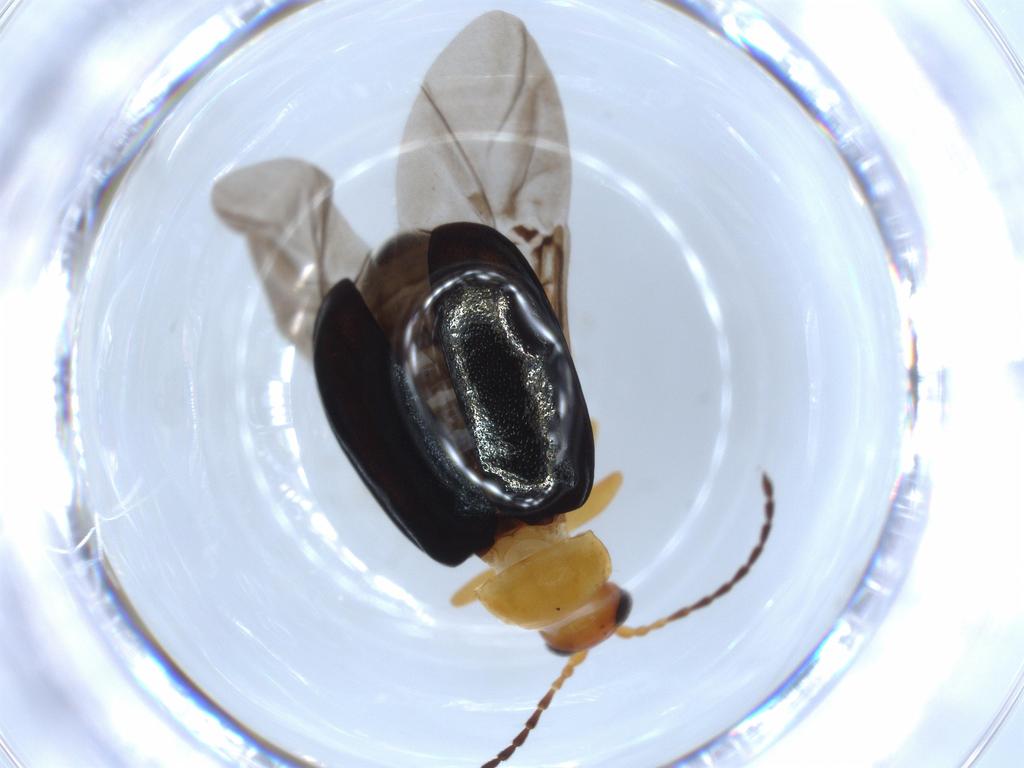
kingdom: Animalia
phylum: Arthropoda
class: Insecta
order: Coleoptera
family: Chrysomelidae
